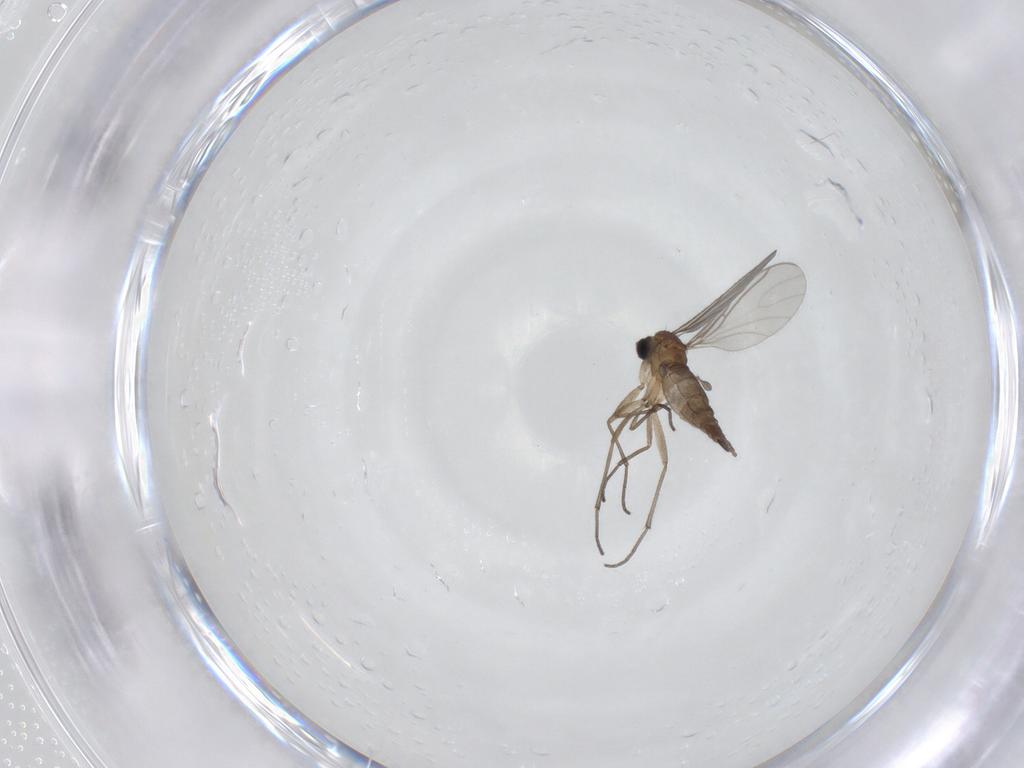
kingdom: Animalia
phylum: Arthropoda
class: Insecta
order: Diptera
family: Sciaridae
